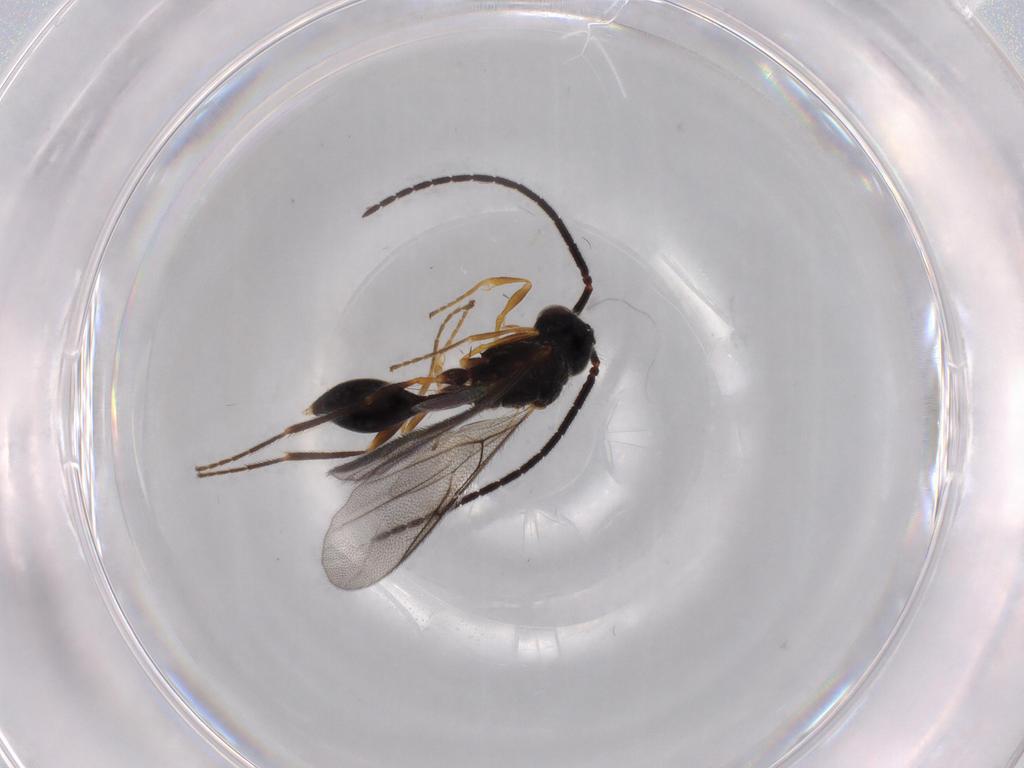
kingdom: Animalia
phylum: Arthropoda
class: Insecta
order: Hymenoptera
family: Diapriidae
